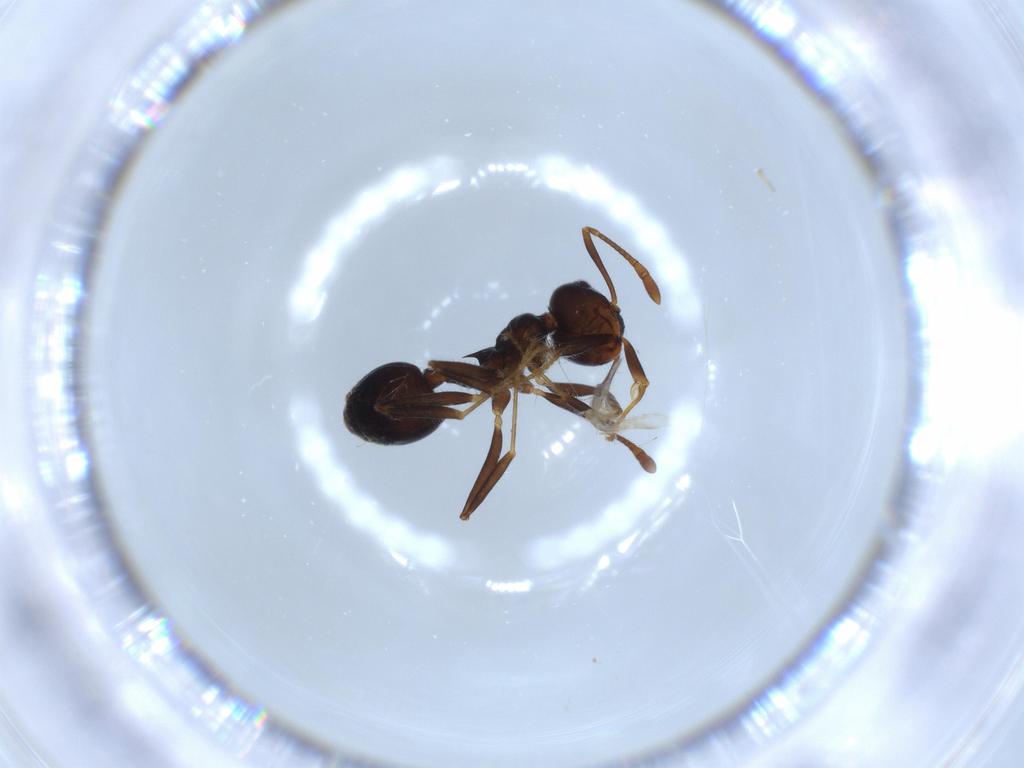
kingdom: Animalia
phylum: Arthropoda
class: Insecta
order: Hymenoptera
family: Formicidae
